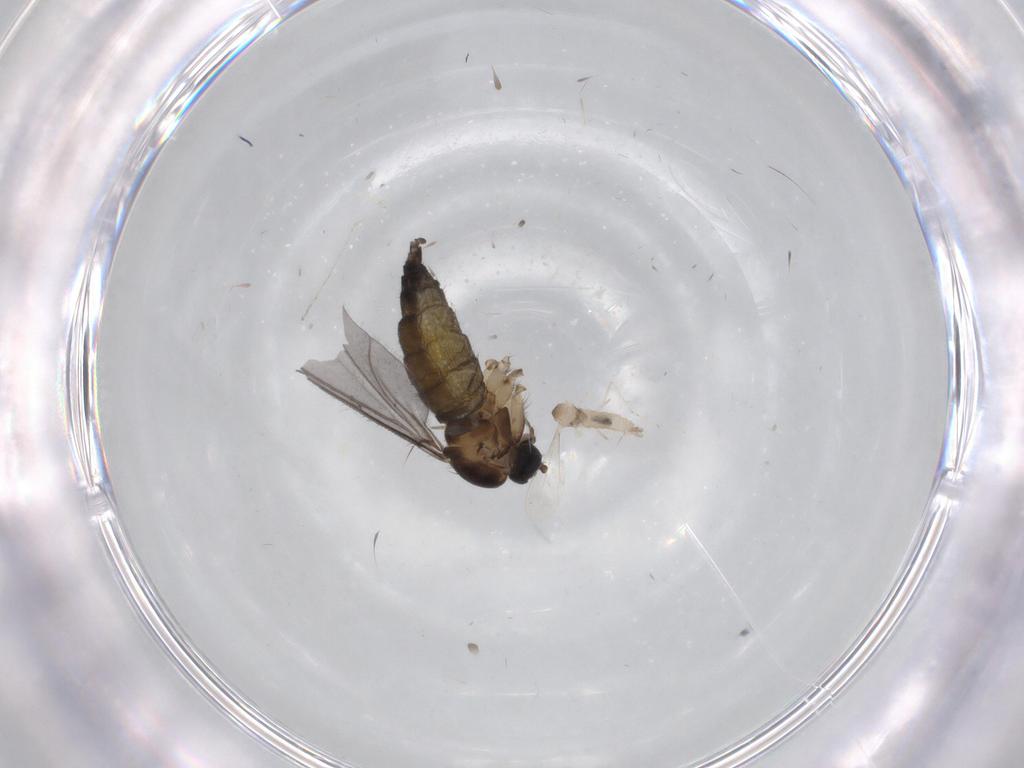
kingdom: Animalia
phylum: Arthropoda
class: Insecta
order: Diptera
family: Sciaridae
